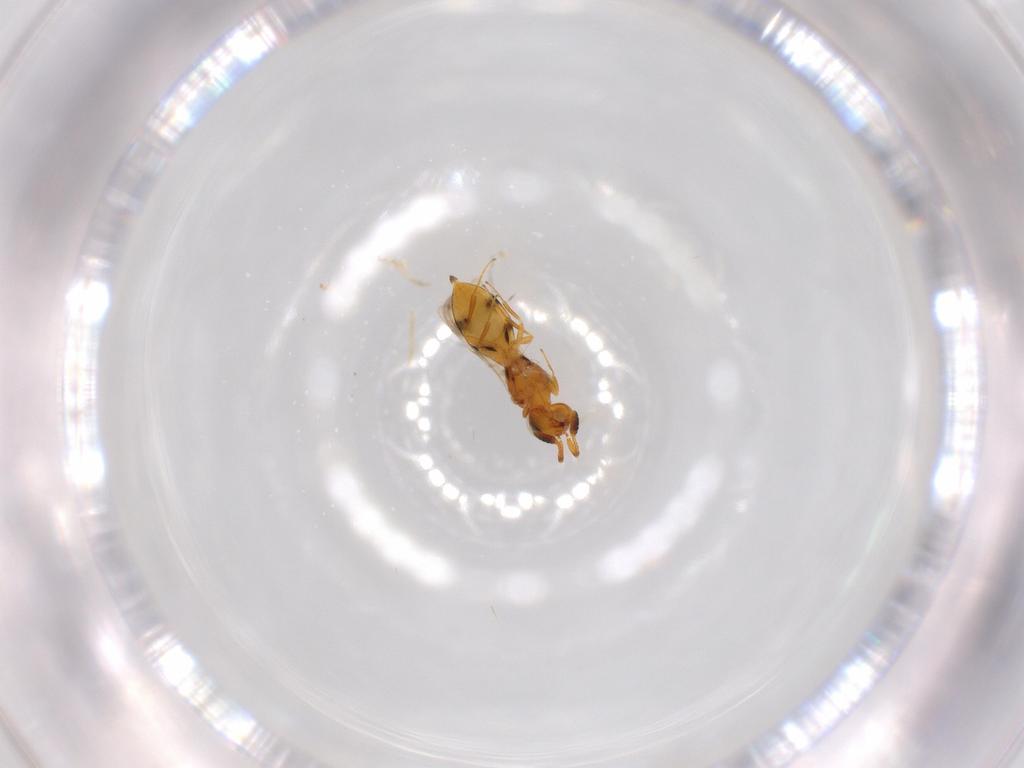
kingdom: Animalia
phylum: Arthropoda
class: Insecta
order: Hymenoptera
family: Scelionidae
